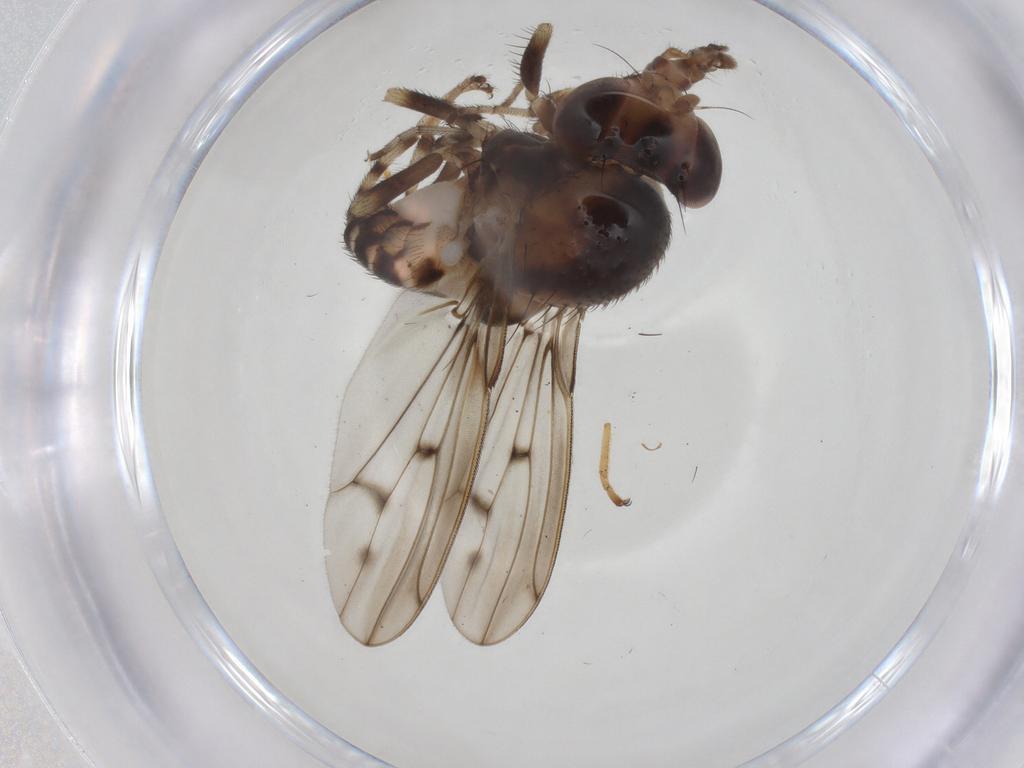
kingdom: Animalia
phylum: Arthropoda
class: Insecta
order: Diptera
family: Drosophilidae
